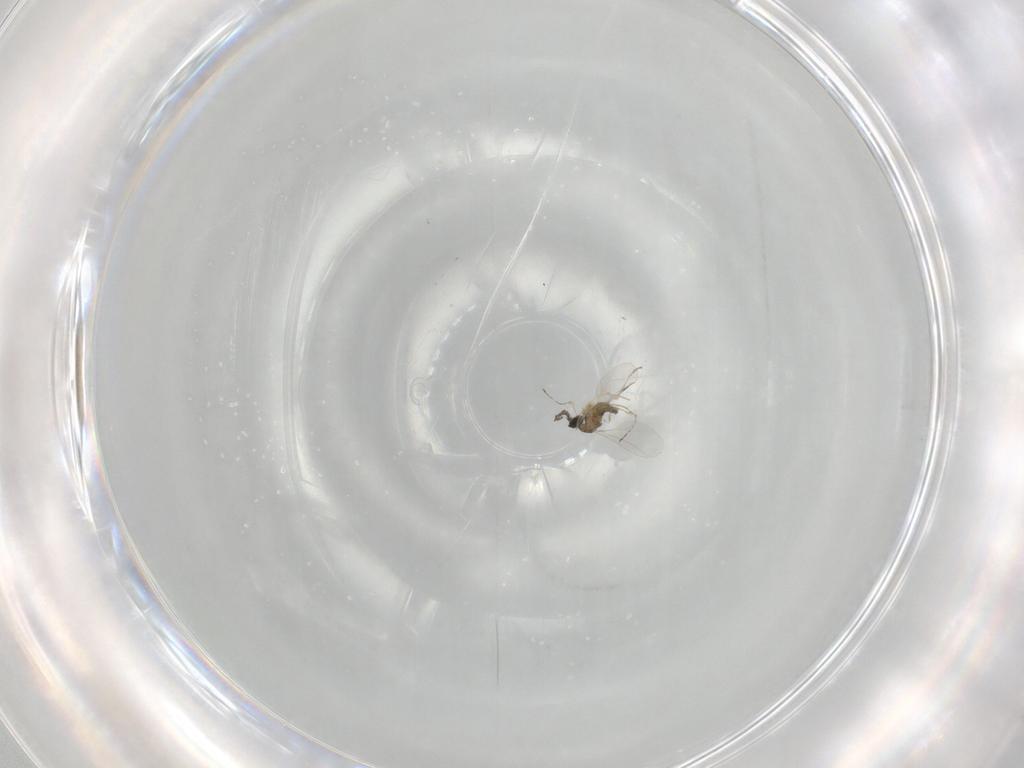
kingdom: Animalia
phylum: Arthropoda
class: Insecta
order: Diptera
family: Cecidomyiidae
